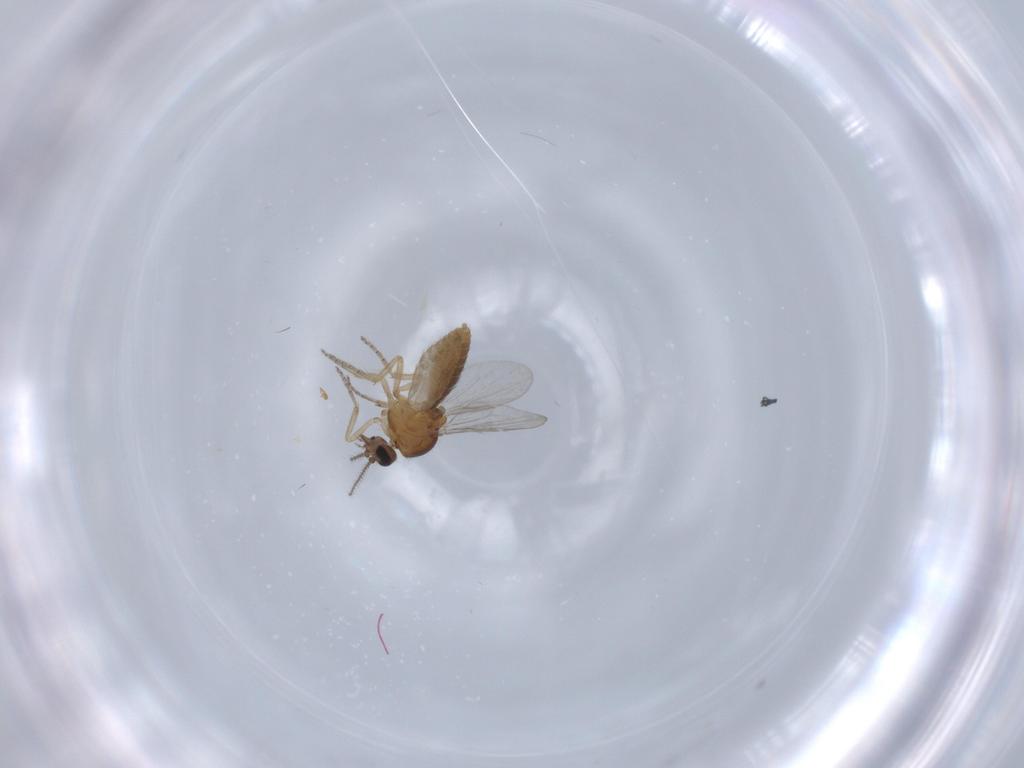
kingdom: Animalia
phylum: Arthropoda
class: Insecta
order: Diptera
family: Ceratopogonidae
